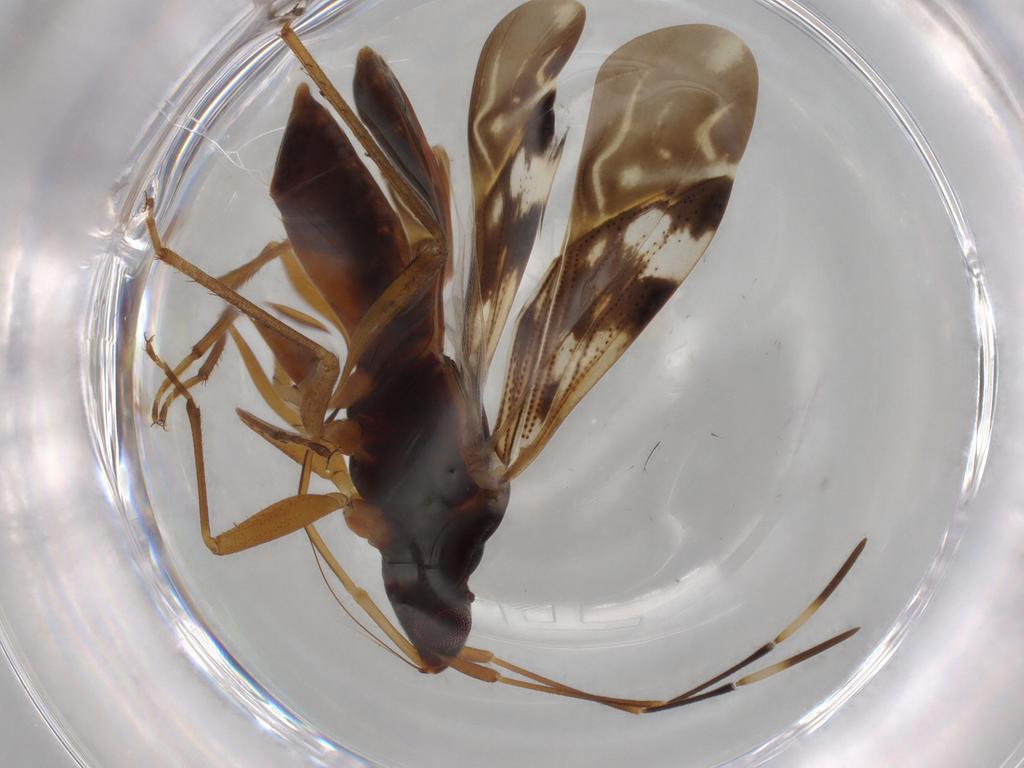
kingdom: Animalia
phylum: Arthropoda
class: Insecta
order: Hemiptera
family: Rhyparochromidae
